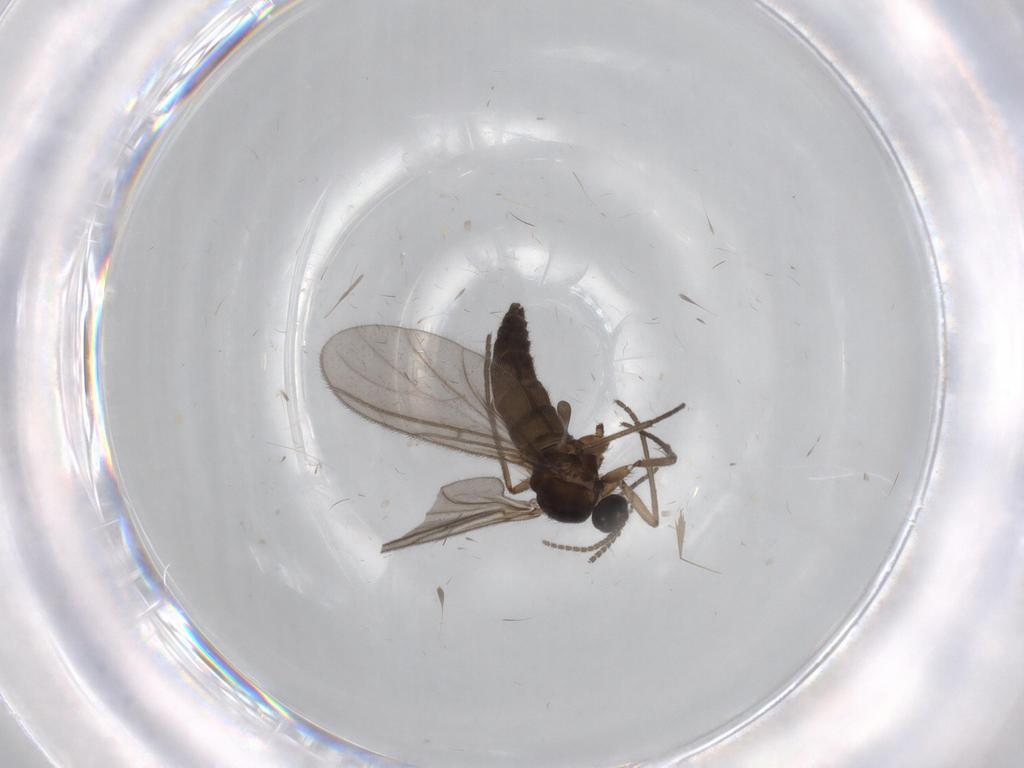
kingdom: Animalia
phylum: Arthropoda
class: Insecta
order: Diptera
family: Sciaridae
